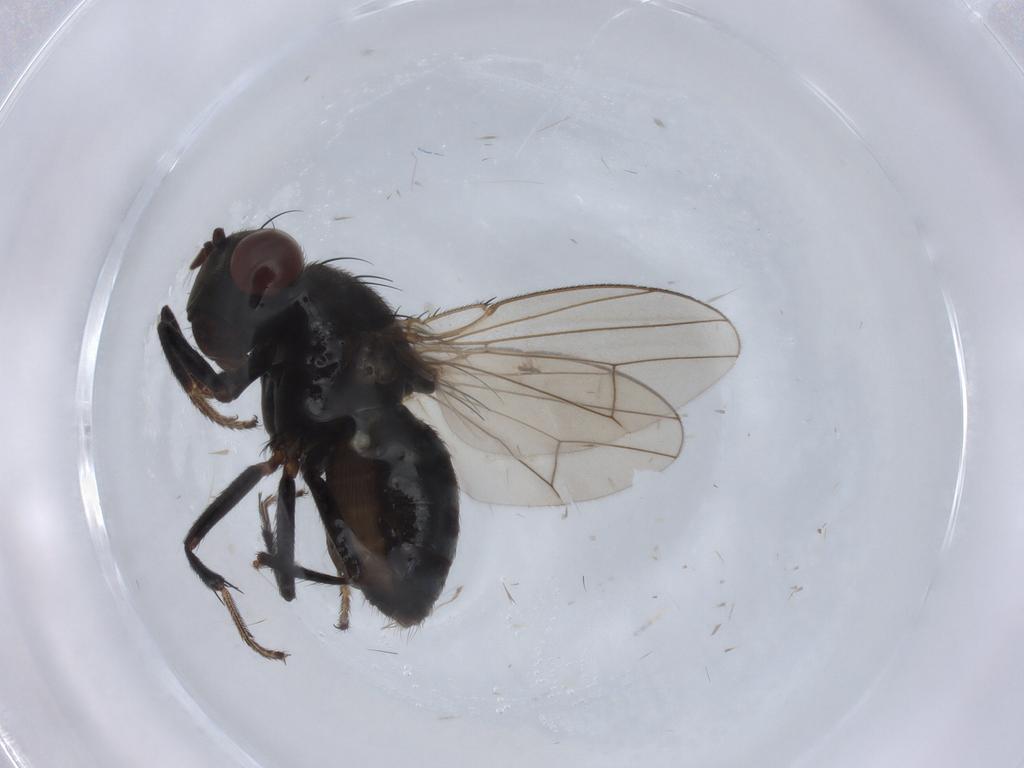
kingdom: Animalia
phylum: Arthropoda
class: Insecta
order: Diptera
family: Ephydridae
